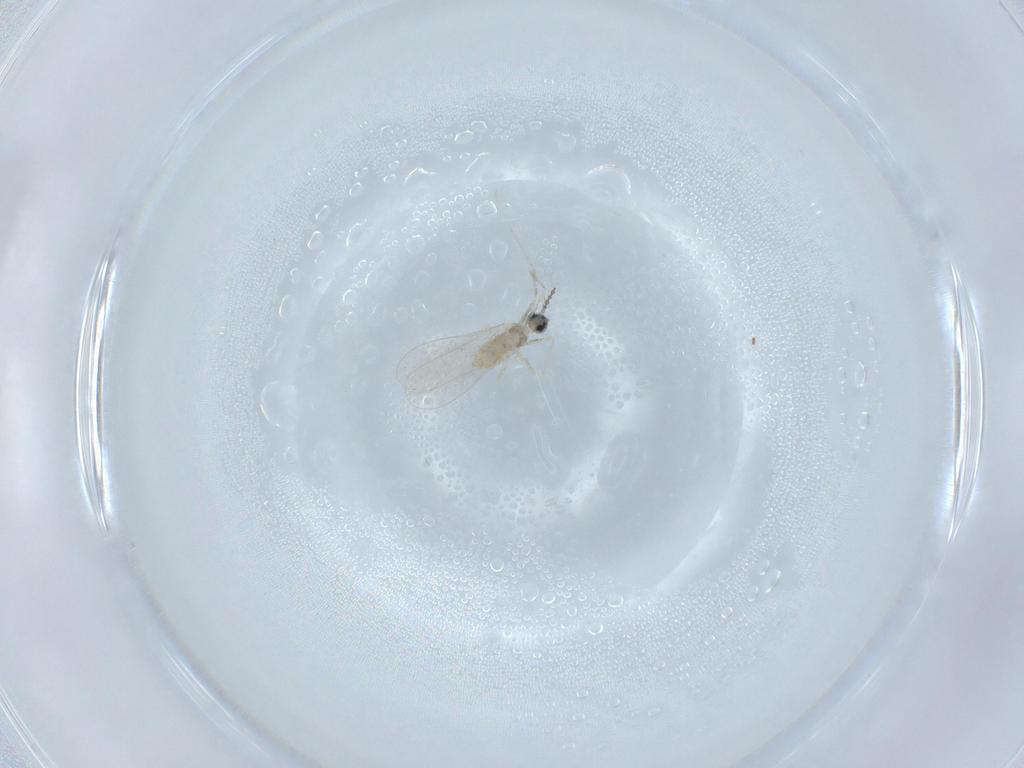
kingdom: Animalia
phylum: Arthropoda
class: Insecta
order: Diptera
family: Cecidomyiidae
